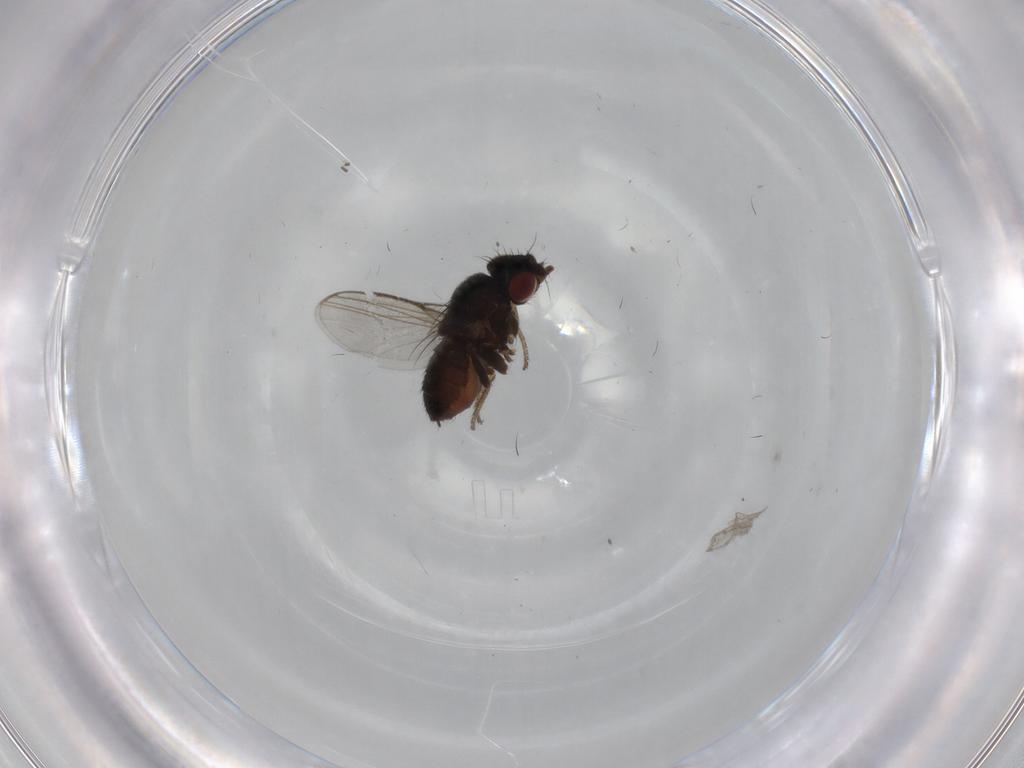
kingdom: Animalia
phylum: Arthropoda
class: Insecta
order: Diptera
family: Milichiidae
